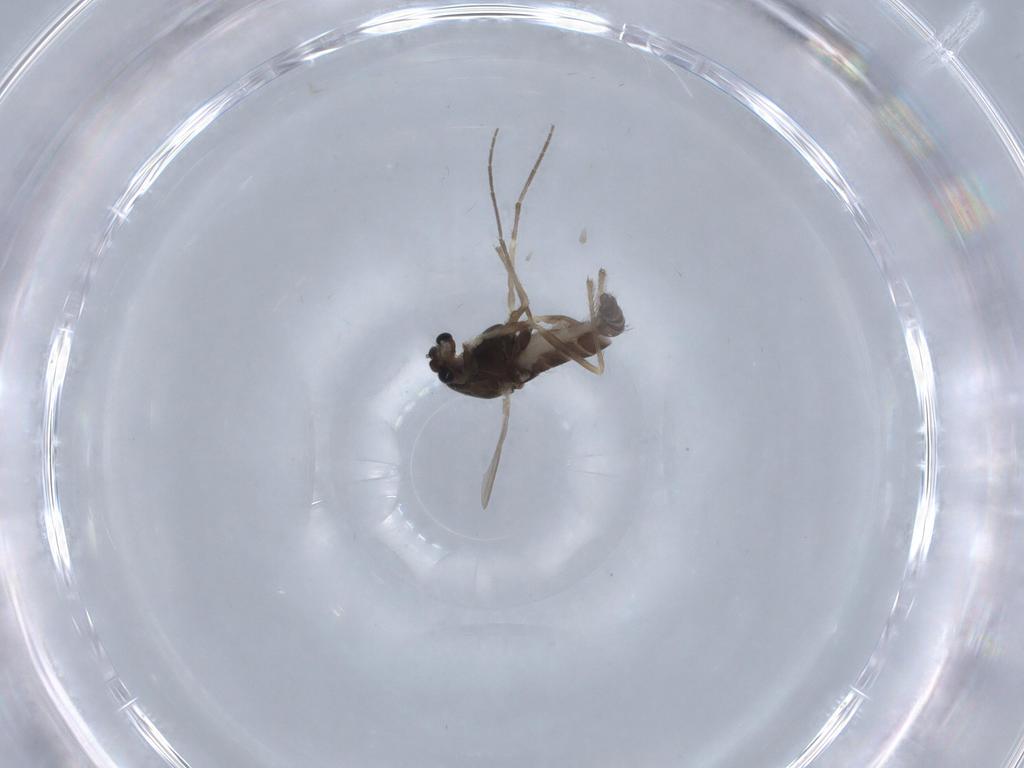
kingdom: Animalia
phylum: Arthropoda
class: Insecta
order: Diptera
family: Chironomidae
